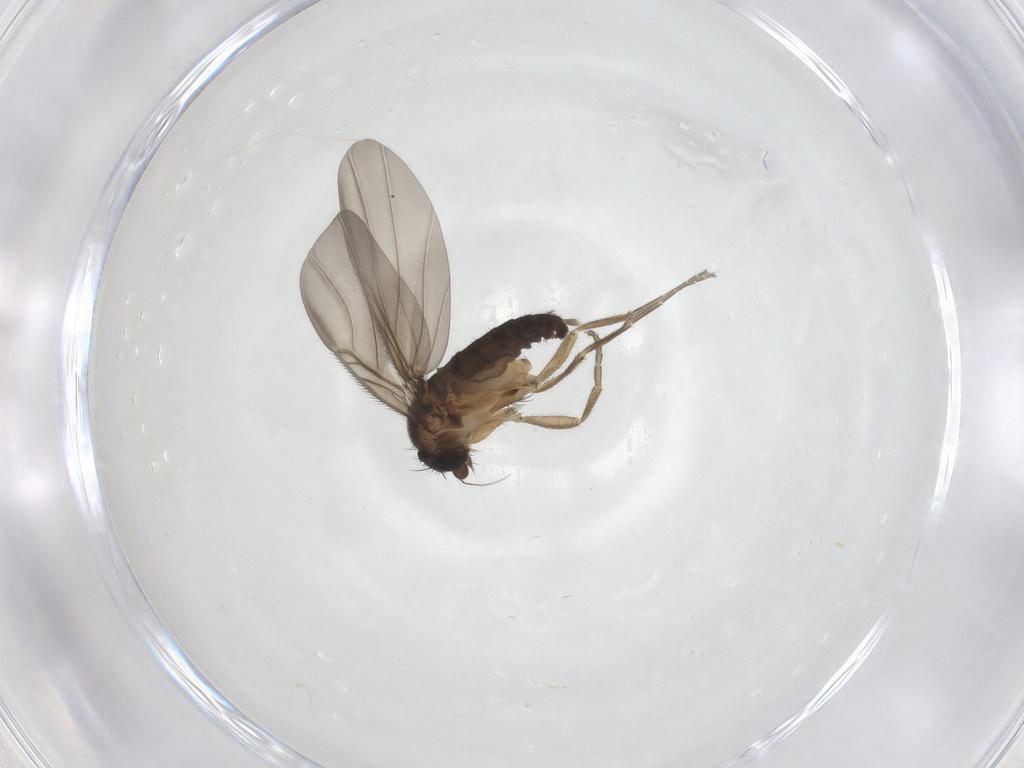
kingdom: Animalia
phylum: Arthropoda
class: Insecta
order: Diptera
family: Phoridae
